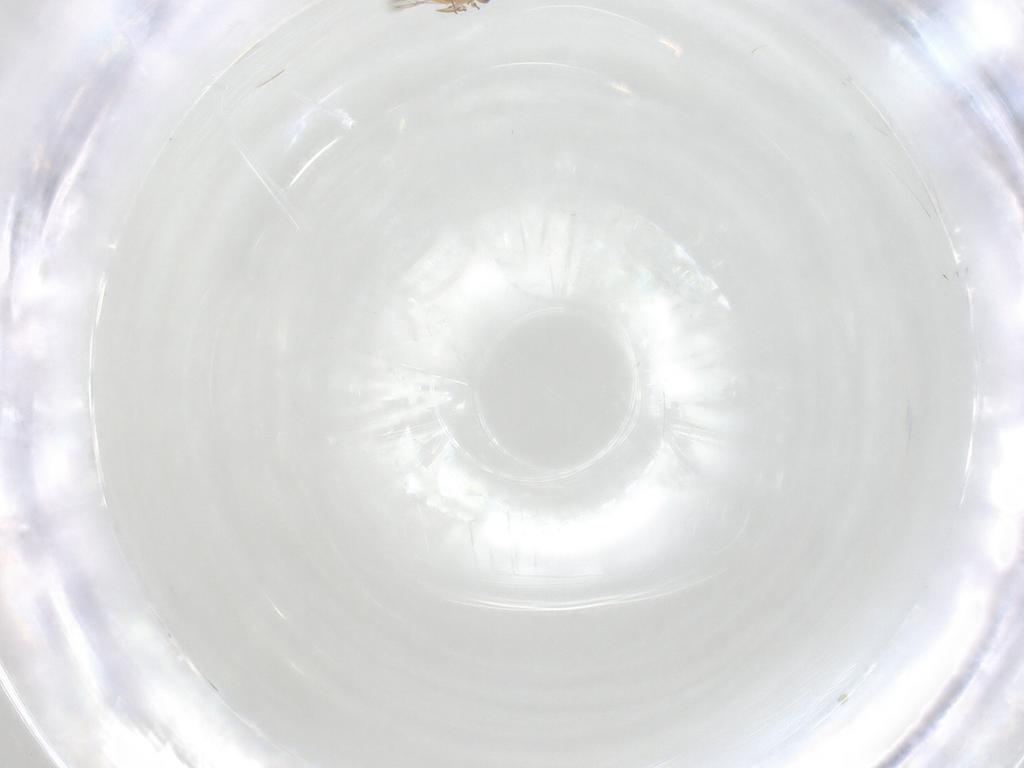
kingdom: Animalia
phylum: Arthropoda
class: Insecta
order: Diptera
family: Cecidomyiidae
